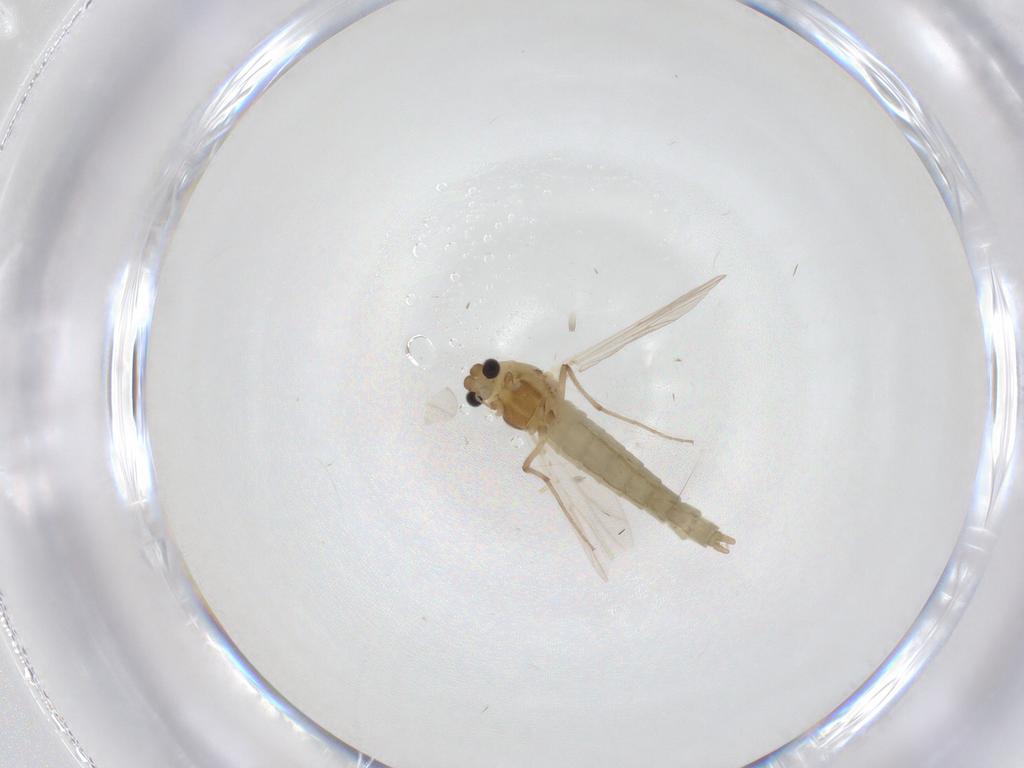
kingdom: Animalia
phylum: Arthropoda
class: Insecta
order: Diptera
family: Chironomidae
